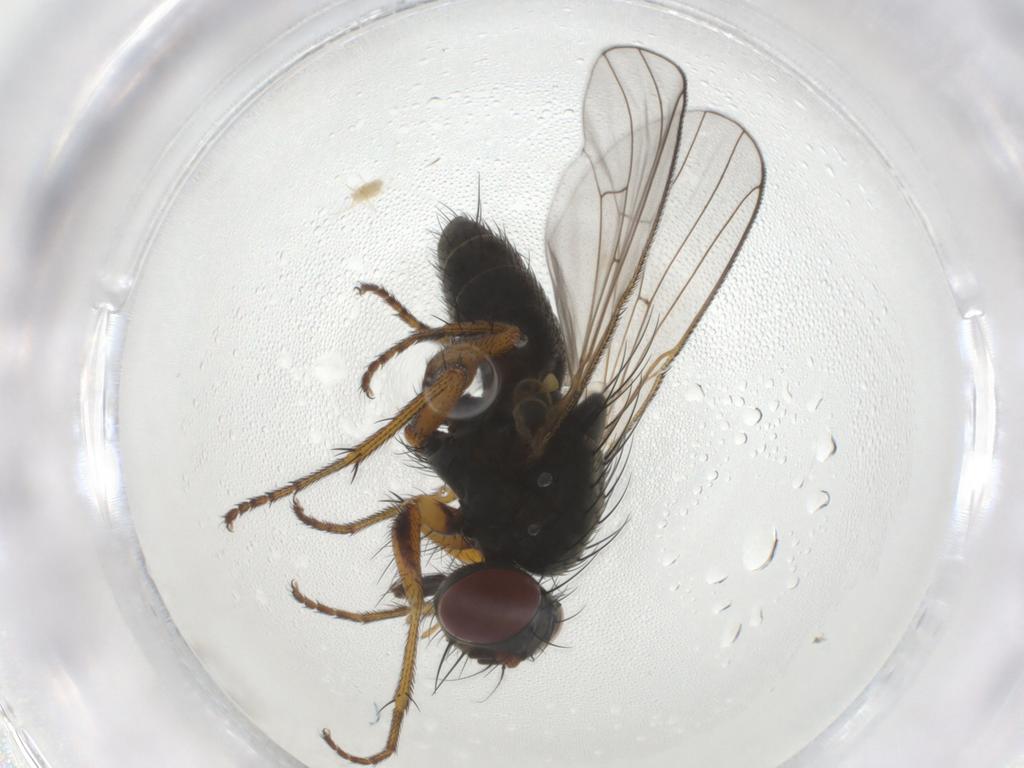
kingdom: Animalia
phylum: Arthropoda
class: Insecta
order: Diptera
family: Muscidae
